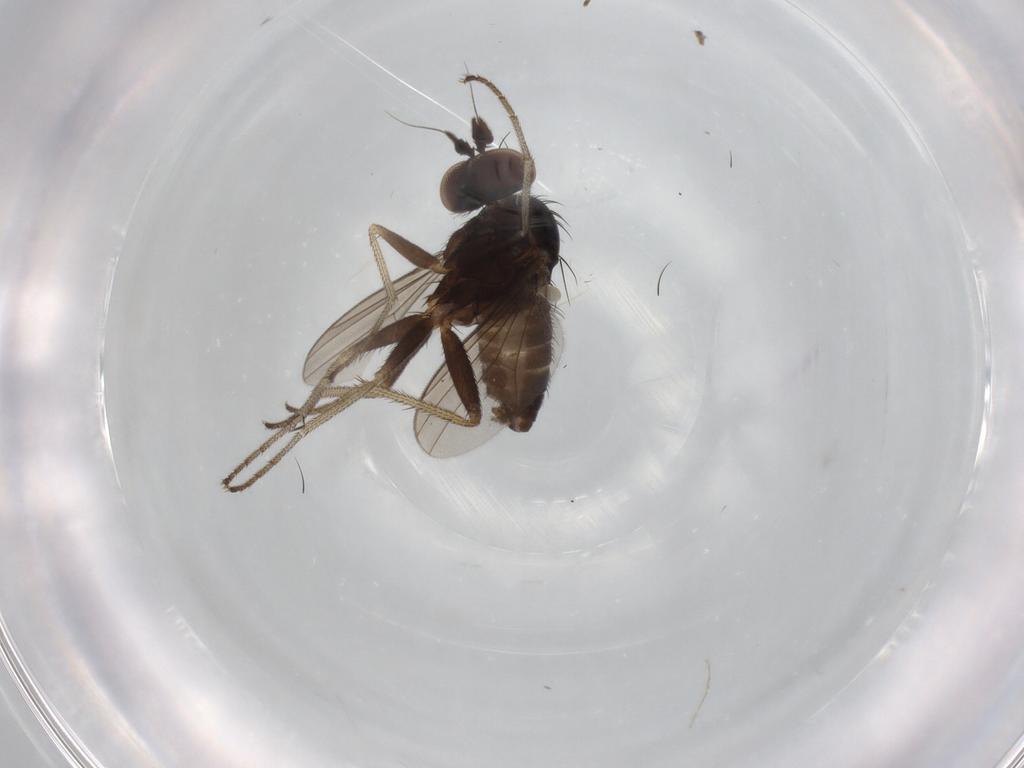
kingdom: Animalia
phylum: Arthropoda
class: Insecta
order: Diptera
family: Dolichopodidae
